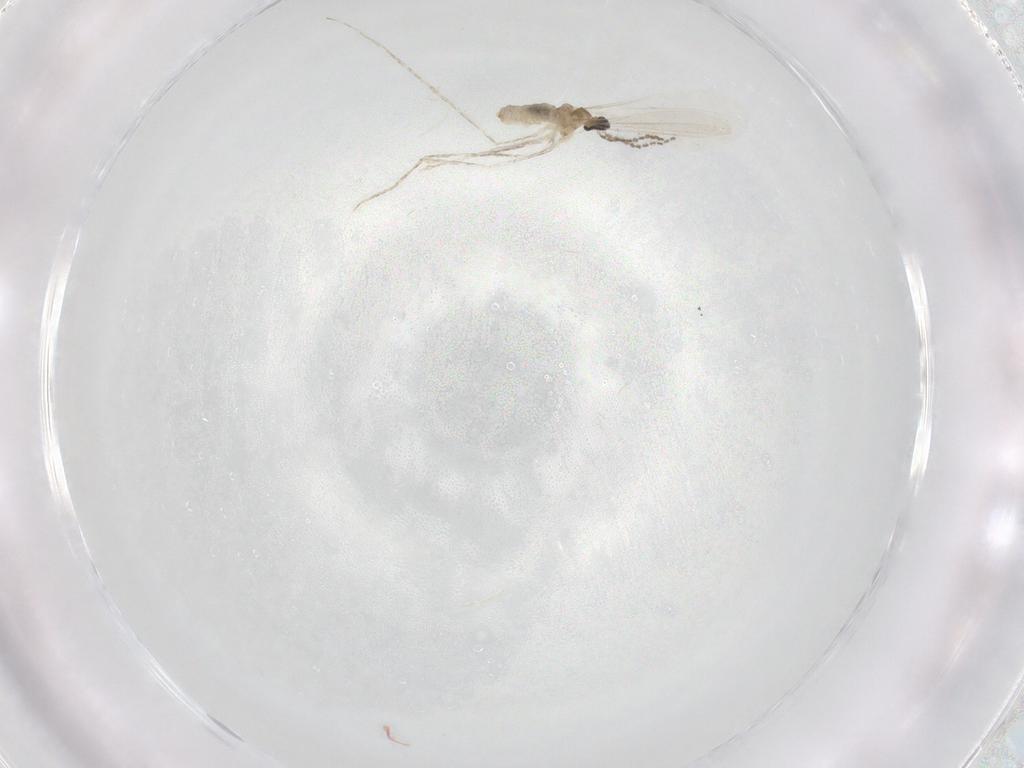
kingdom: Animalia
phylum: Arthropoda
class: Insecta
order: Diptera
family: Cecidomyiidae
